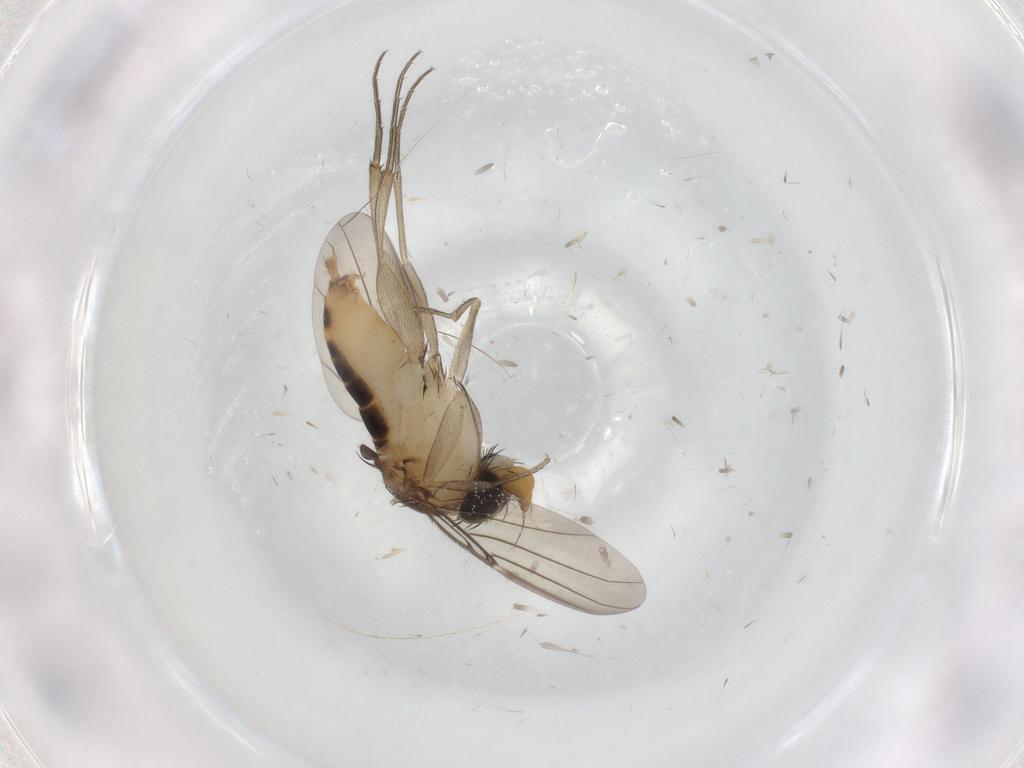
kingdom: Animalia
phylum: Arthropoda
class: Insecta
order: Diptera
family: Phoridae
